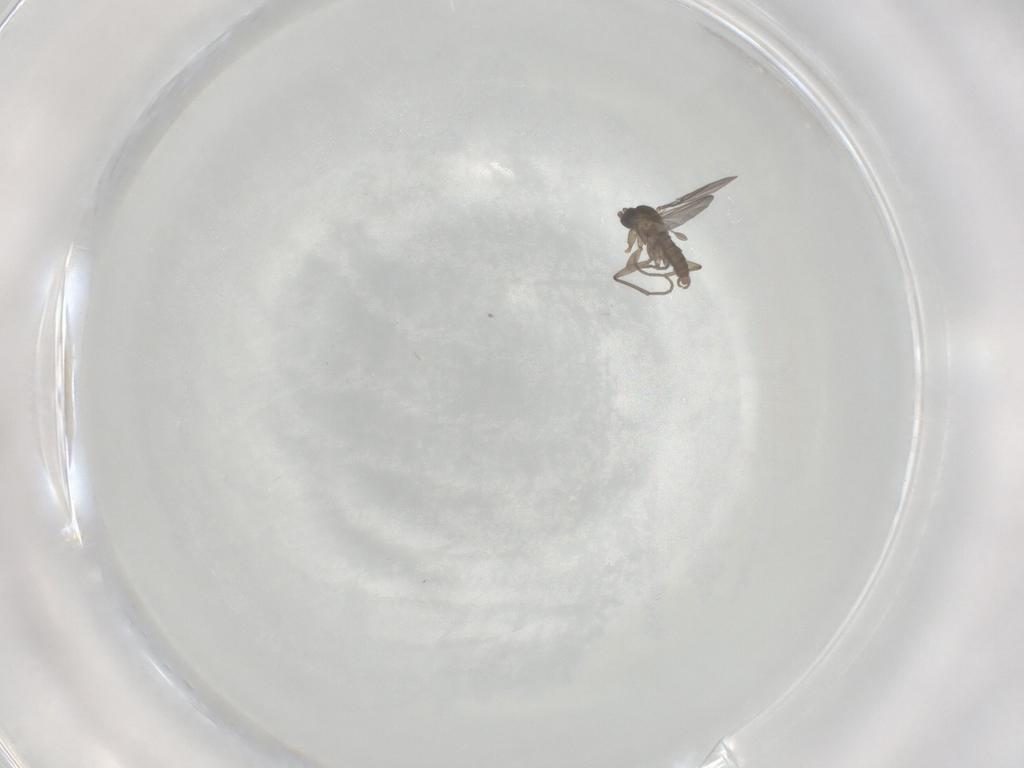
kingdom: Animalia
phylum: Arthropoda
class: Insecta
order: Diptera
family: Sciaridae
